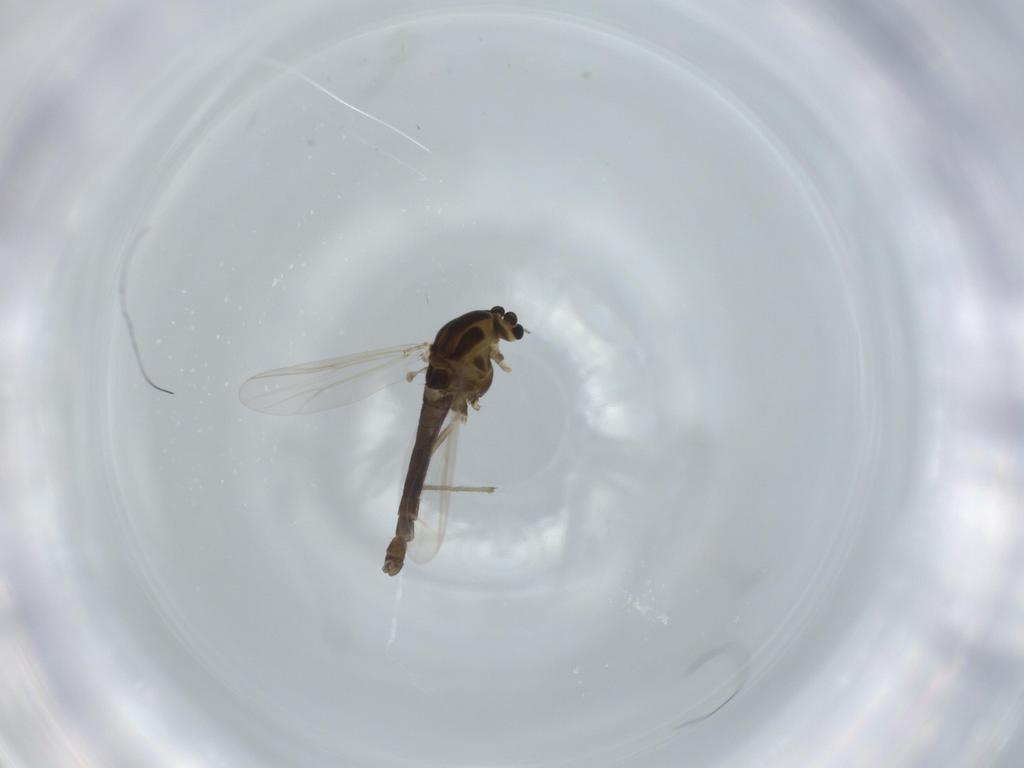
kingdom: Animalia
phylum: Arthropoda
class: Insecta
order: Diptera
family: Chironomidae
